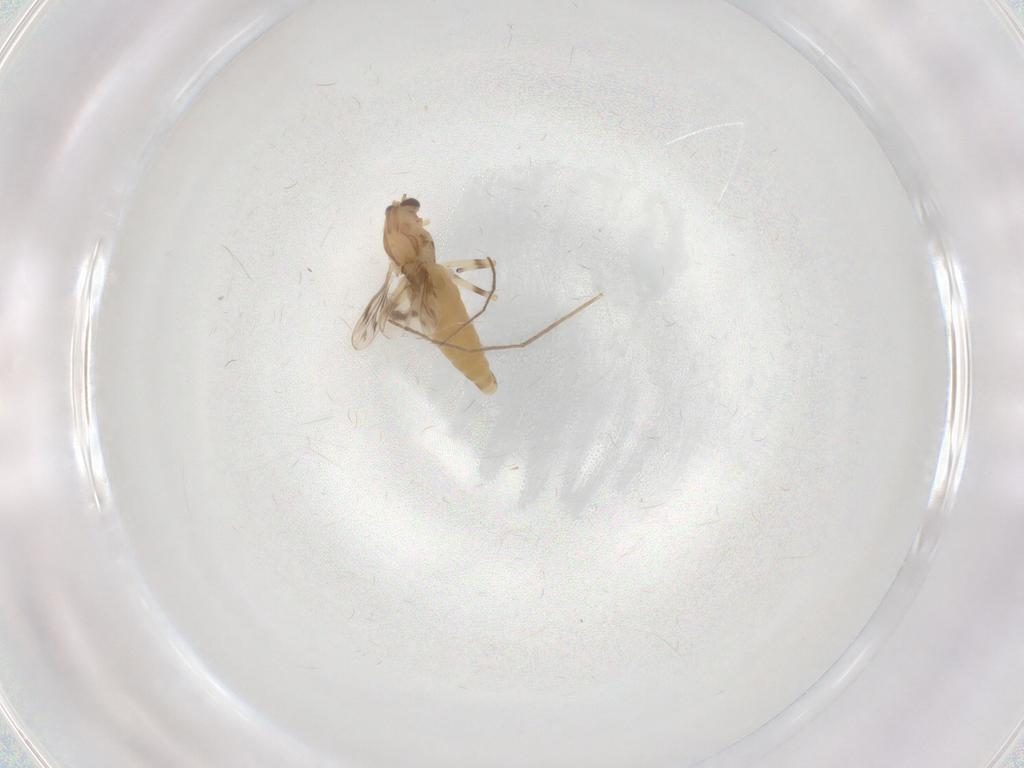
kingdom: Animalia
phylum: Arthropoda
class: Insecta
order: Diptera
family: Chironomidae
